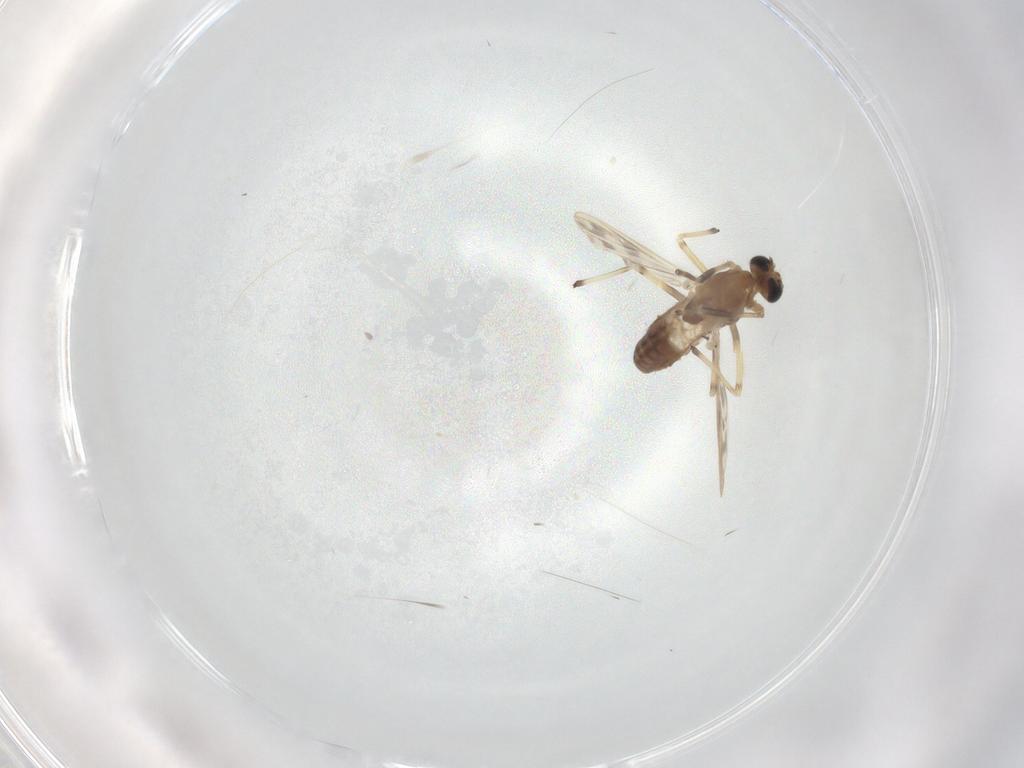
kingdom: Animalia
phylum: Arthropoda
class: Insecta
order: Diptera
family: Chironomidae
